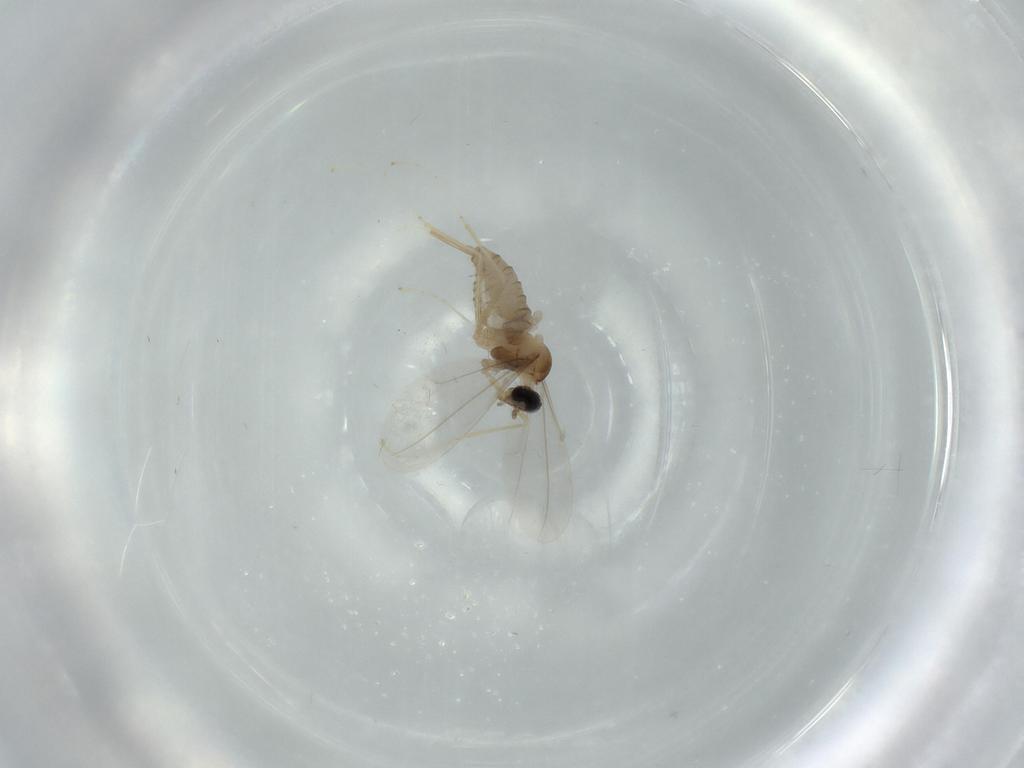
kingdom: Animalia
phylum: Arthropoda
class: Insecta
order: Diptera
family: Cecidomyiidae
